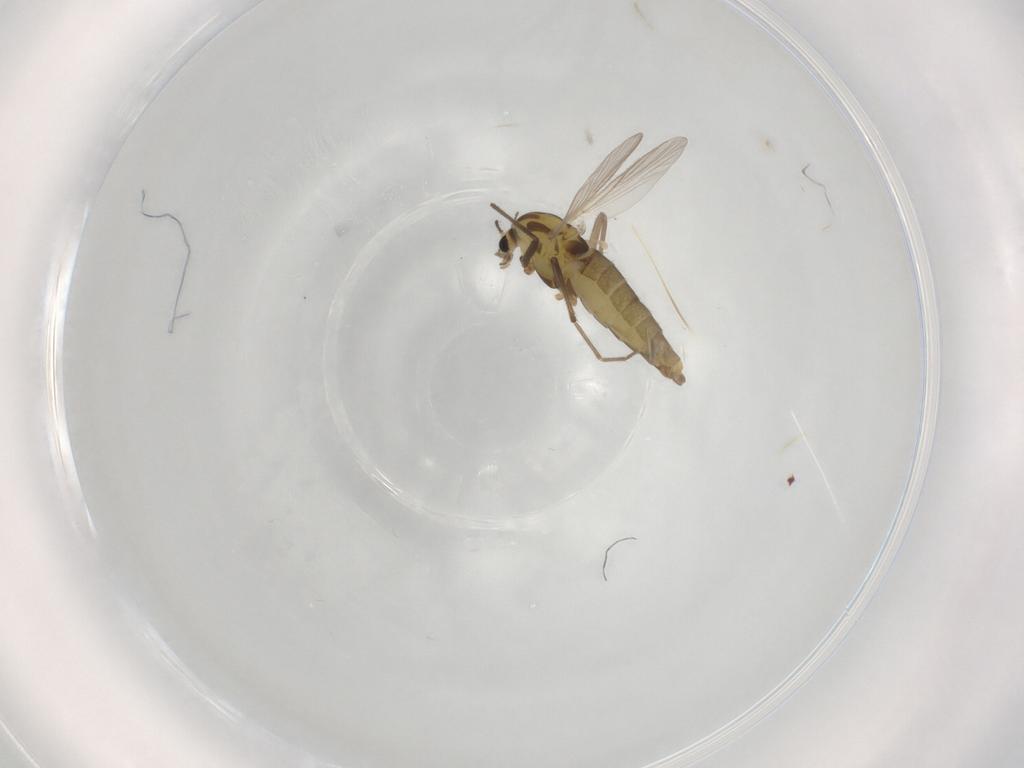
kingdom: Animalia
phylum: Arthropoda
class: Insecta
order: Diptera
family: Chironomidae
